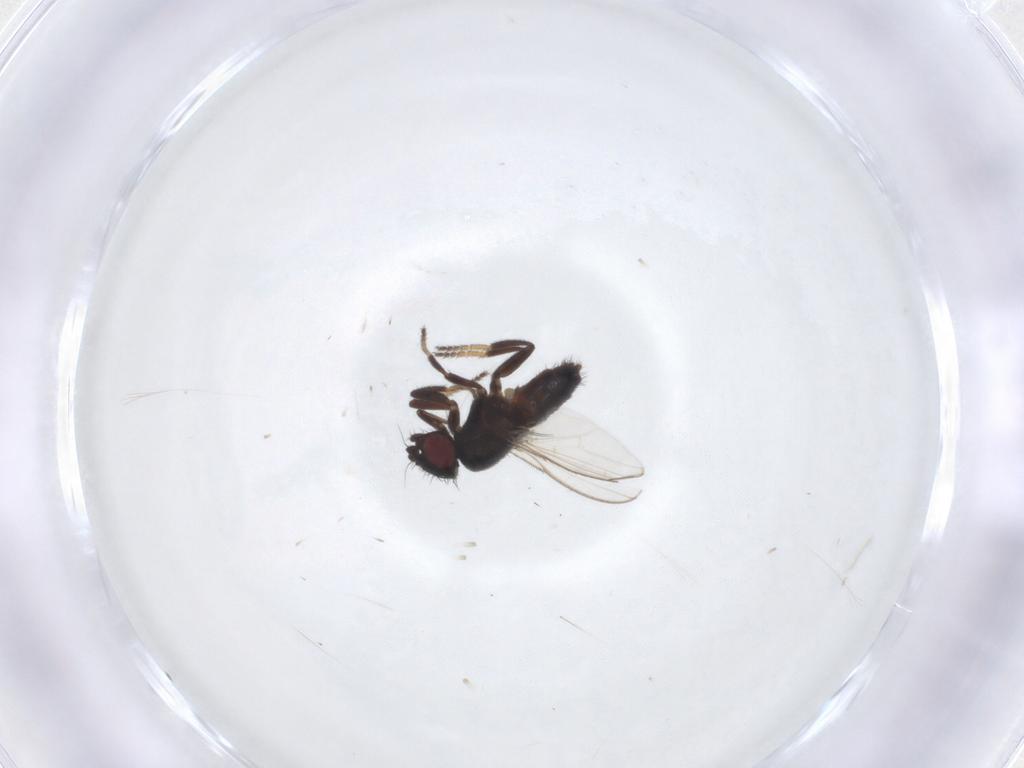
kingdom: Animalia
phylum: Arthropoda
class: Insecta
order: Diptera
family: Milichiidae
